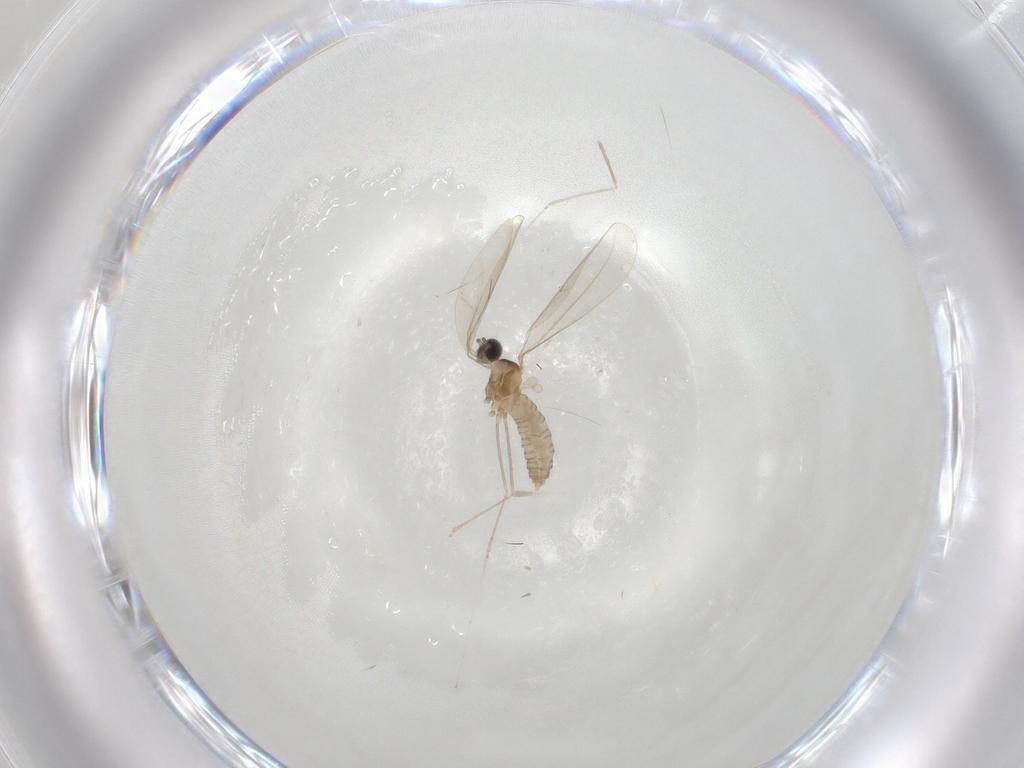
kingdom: Animalia
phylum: Arthropoda
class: Insecta
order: Diptera
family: Cecidomyiidae
